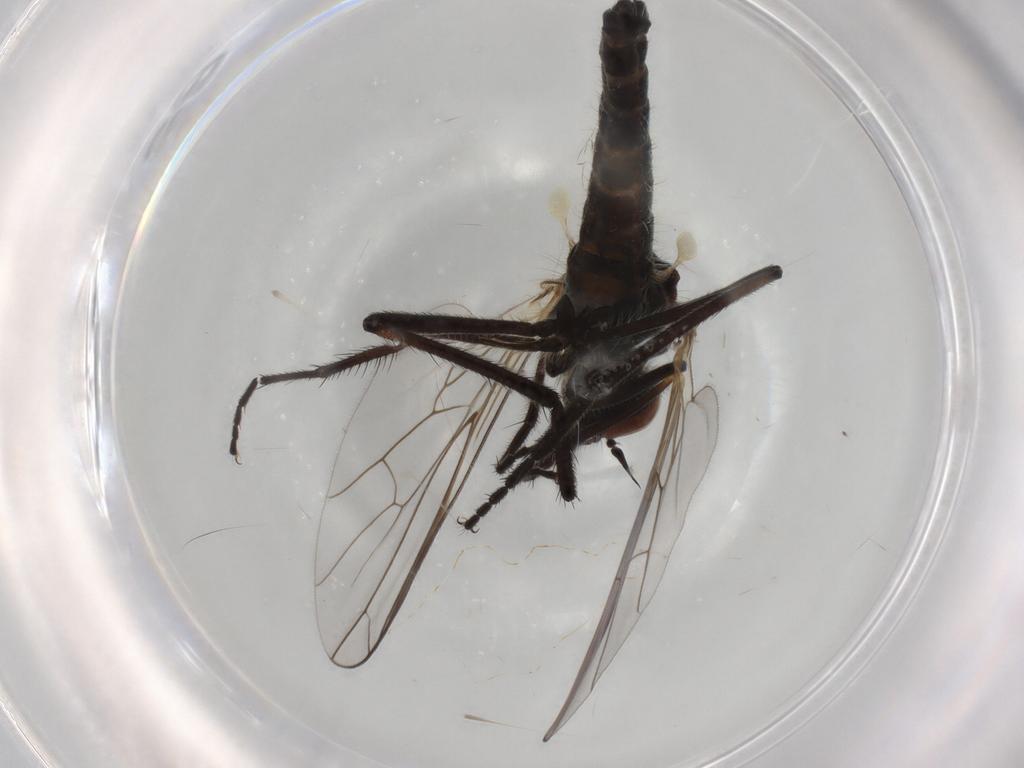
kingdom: Animalia
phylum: Arthropoda
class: Insecta
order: Diptera
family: Empididae
